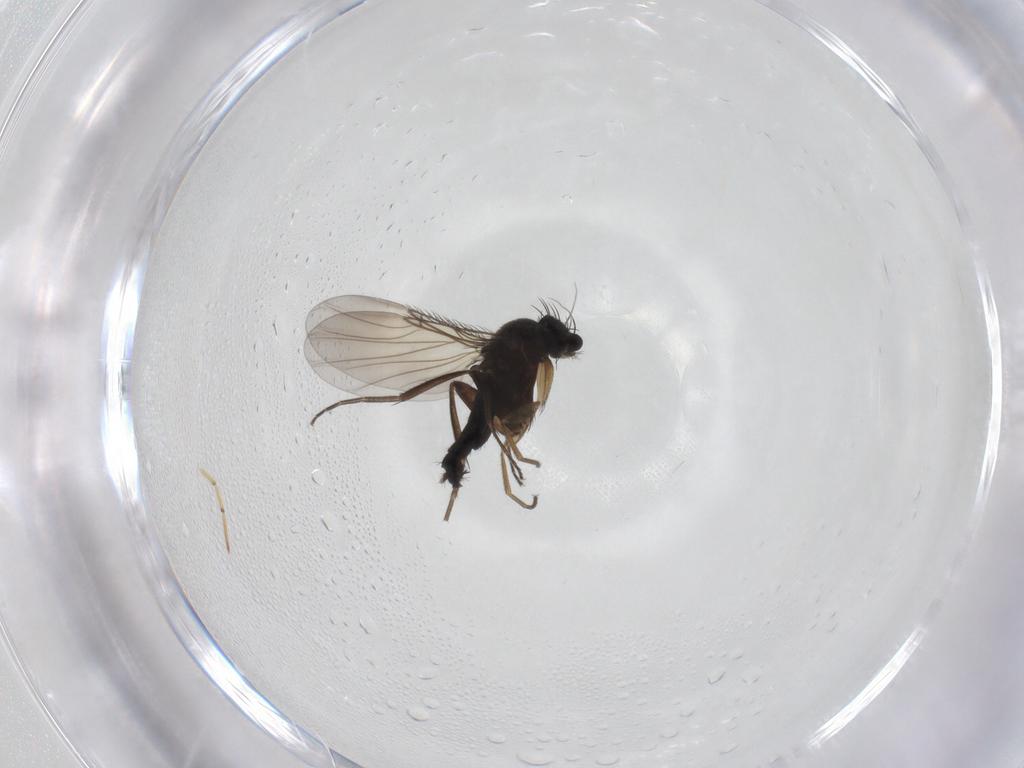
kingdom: Animalia
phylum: Arthropoda
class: Insecta
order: Diptera
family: Phoridae
